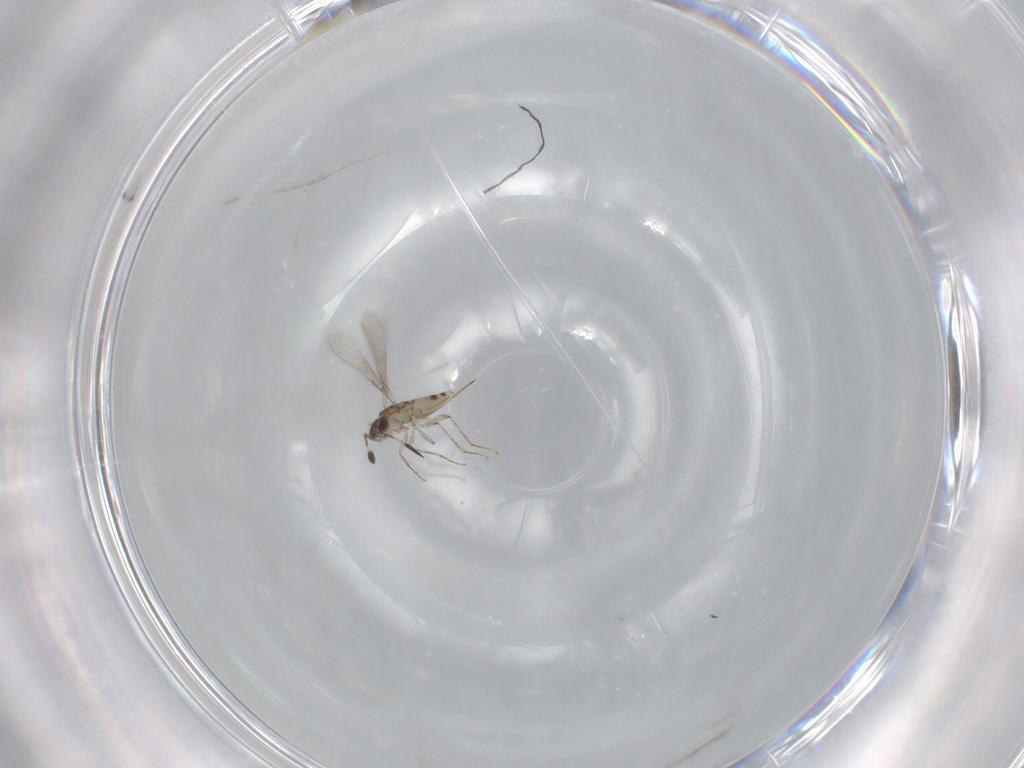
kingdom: Animalia
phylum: Arthropoda
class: Insecta
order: Hymenoptera
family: Mymaridae
